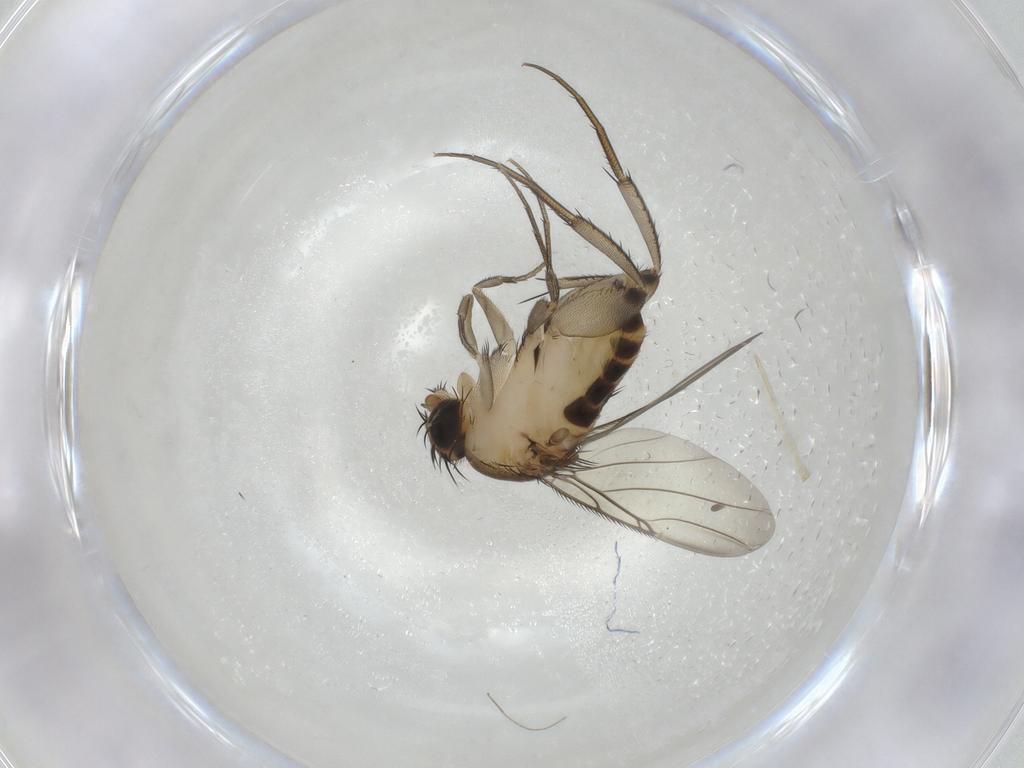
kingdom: Animalia
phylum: Arthropoda
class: Insecta
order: Diptera
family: Phoridae
